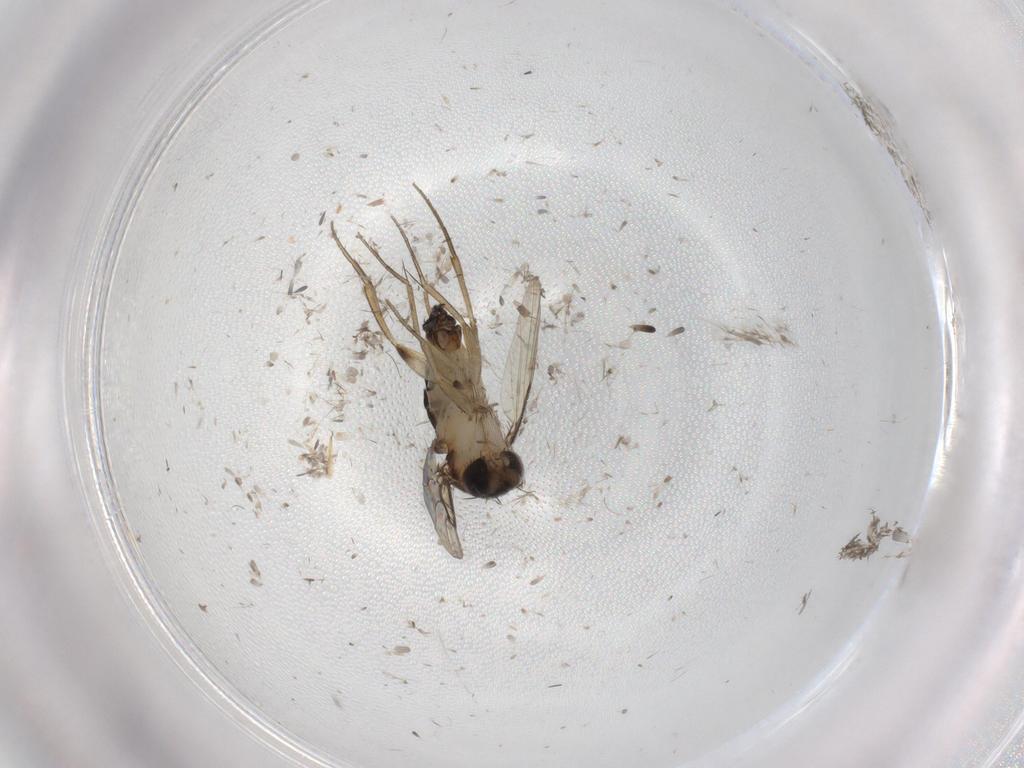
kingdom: Animalia
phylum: Arthropoda
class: Insecta
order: Diptera
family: Phoridae
